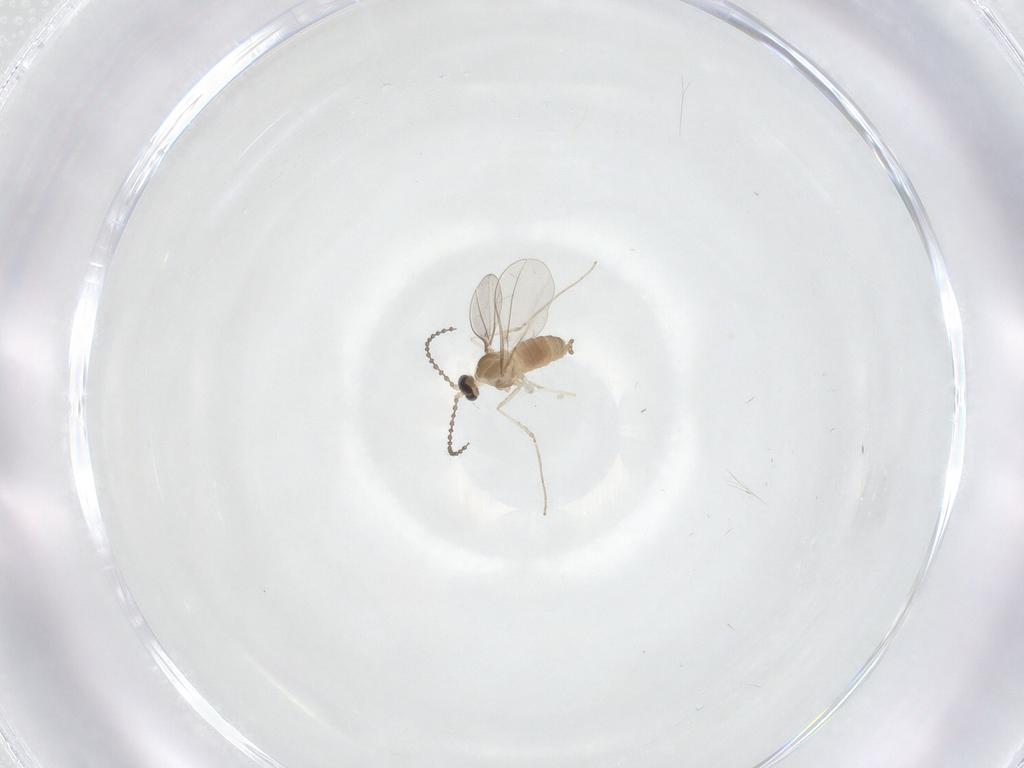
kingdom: Animalia
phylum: Arthropoda
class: Insecta
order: Diptera
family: Cecidomyiidae
